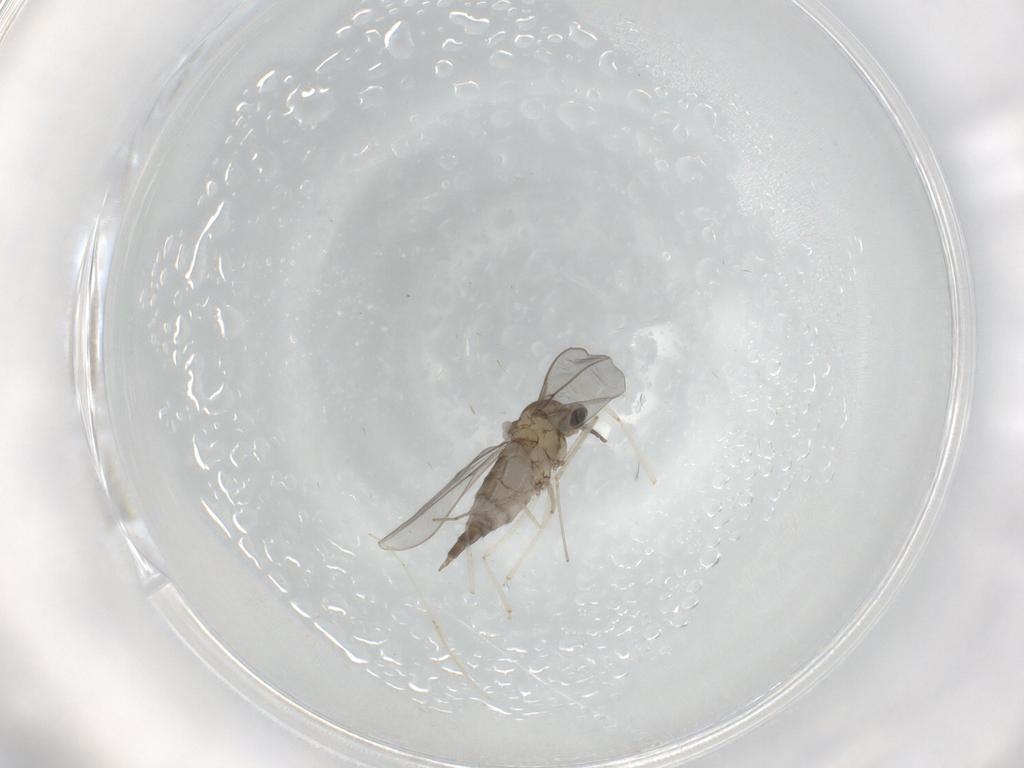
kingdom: Animalia
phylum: Arthropoda
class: Insecta
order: Diptera
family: Cecidomyiidae
